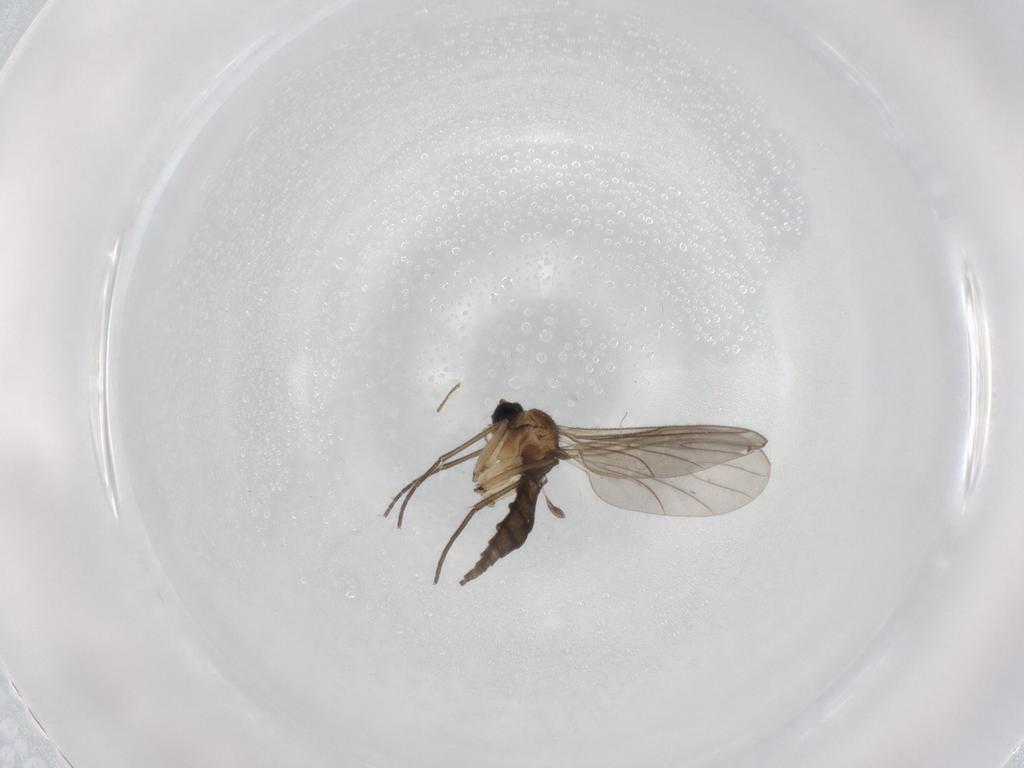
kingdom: Animalia
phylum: Arthropoda
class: Insecta
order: Diptera
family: Sciaridae
